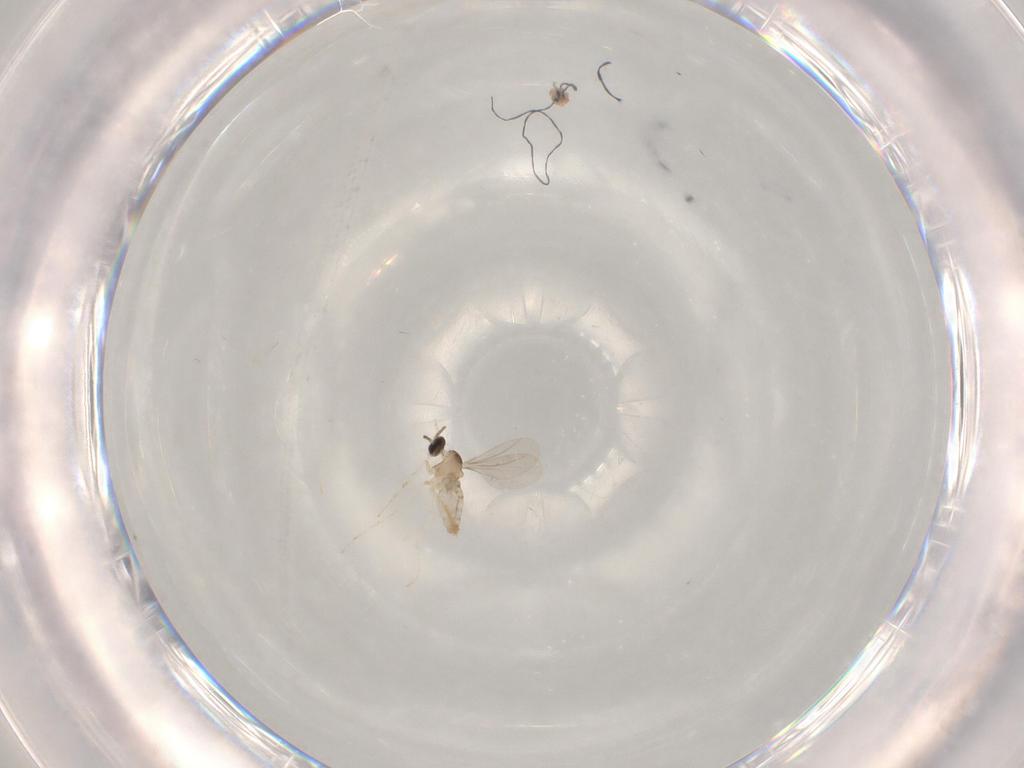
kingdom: Animalia
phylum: Arthropoda
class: Insecta
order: Diptera
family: Cecidomyiidae
